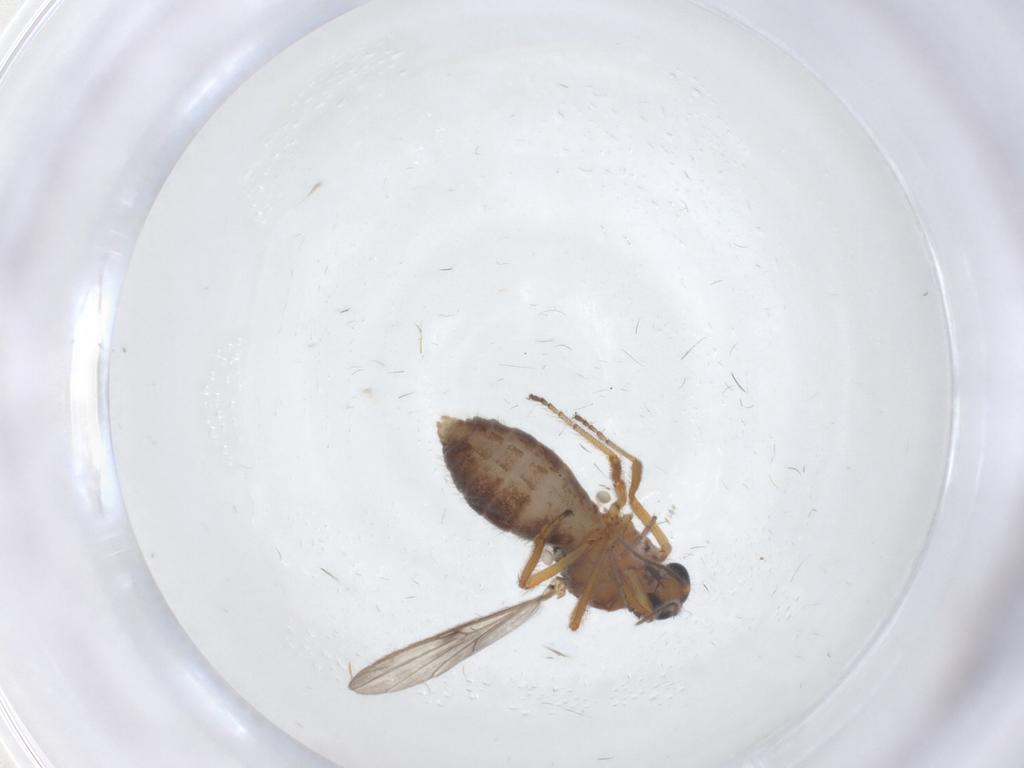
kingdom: Animalia
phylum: Arthropoda
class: Insecta
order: Diptera
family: Ceratopogonidae
